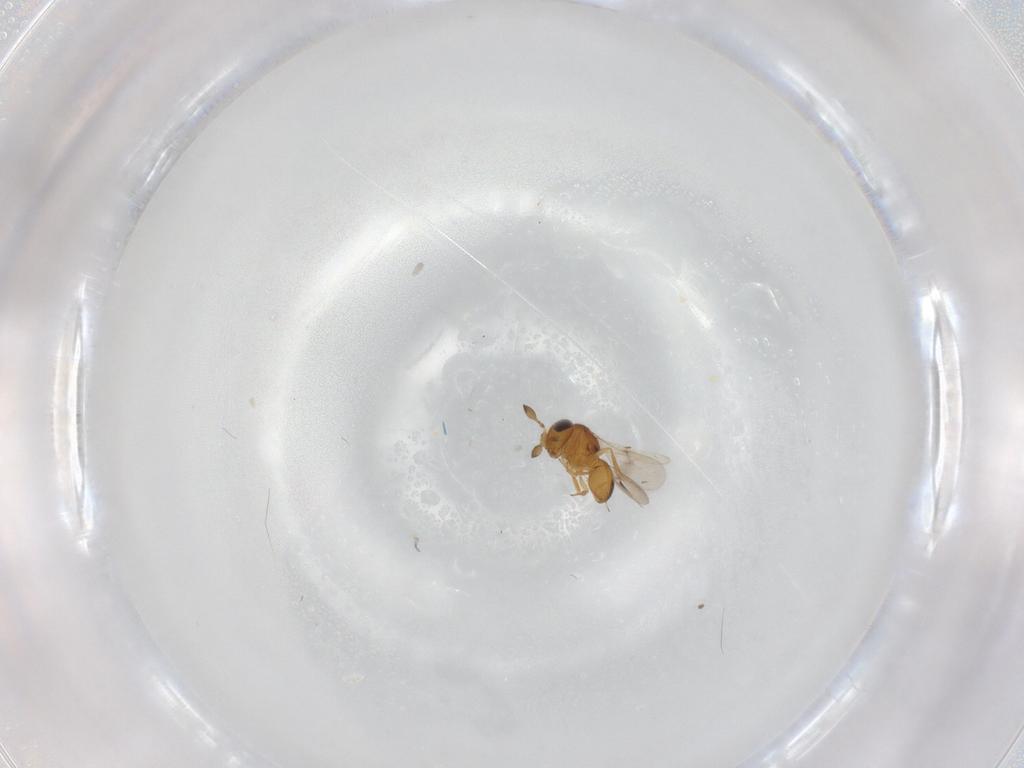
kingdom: Animalia
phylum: Arthropoda
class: Insecta
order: Hymenoptera
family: Scelionidae
